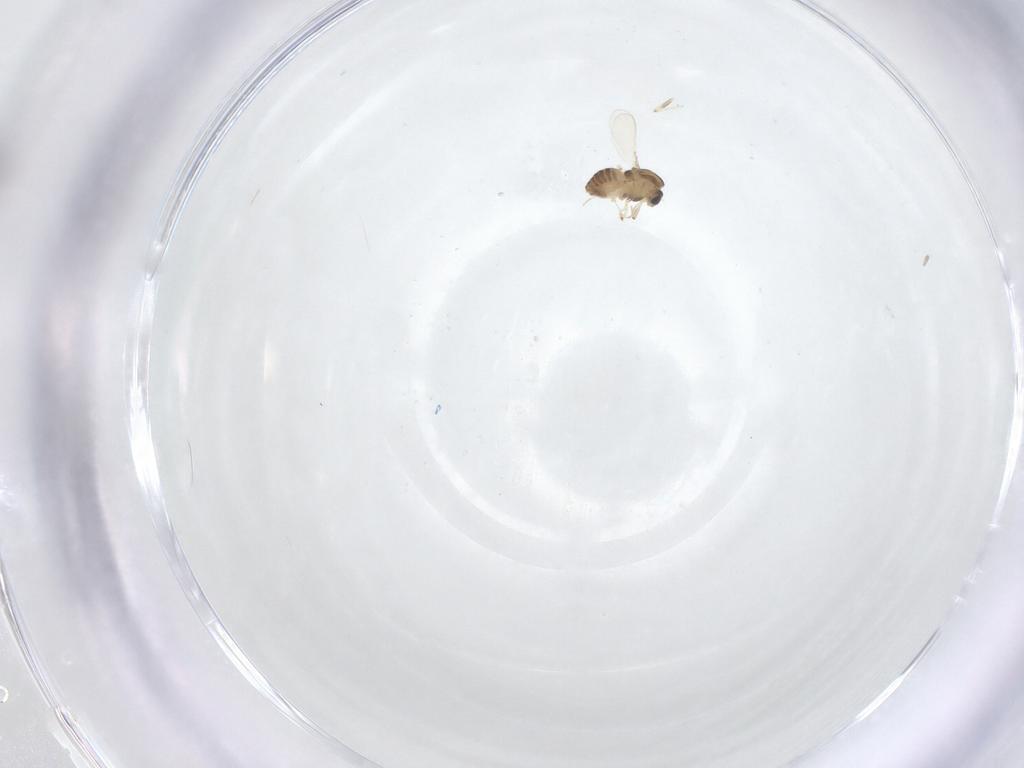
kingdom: Animalia
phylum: Arthropoda
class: Insecta
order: Diptera
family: Chironomidae
